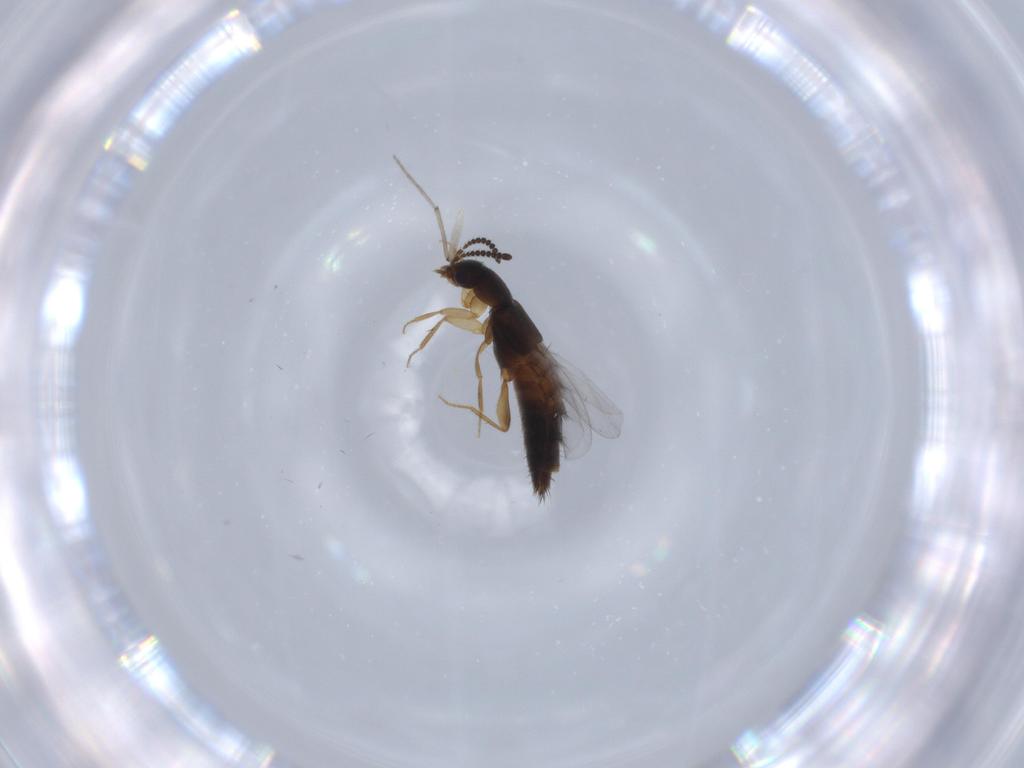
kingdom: Animalia
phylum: Arthropoda
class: Insecta
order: Coleoptera
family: Staphylinidae
